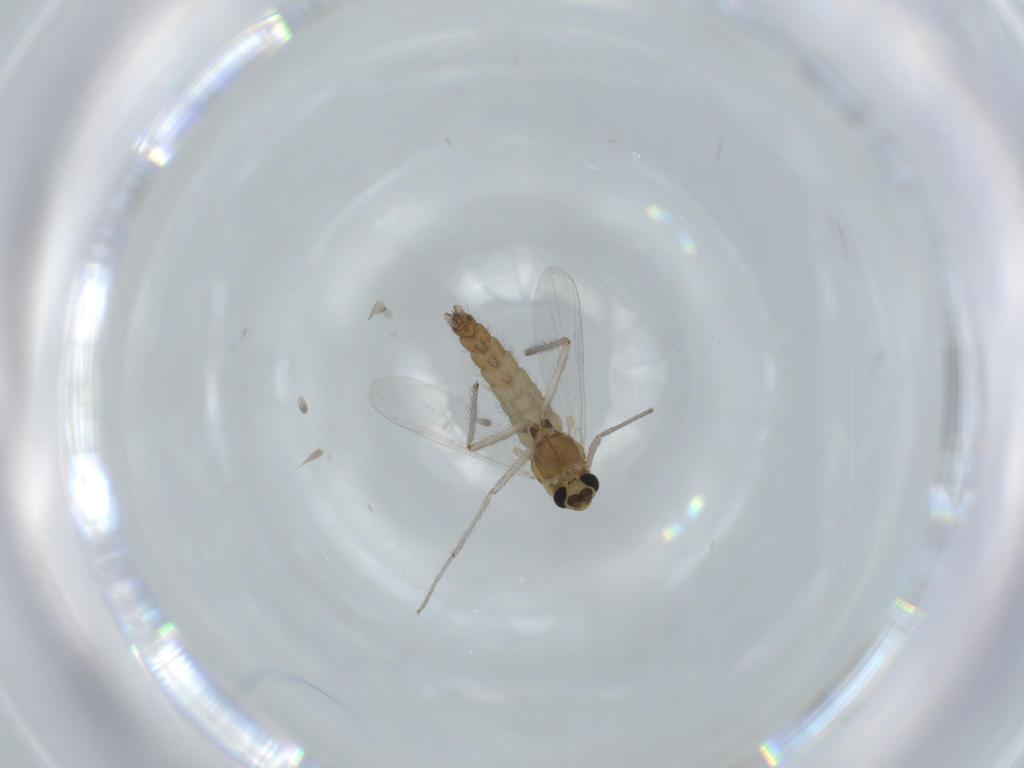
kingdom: Animalia
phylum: Arthropoda
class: Insecta
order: Diptera
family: Chironomidae
